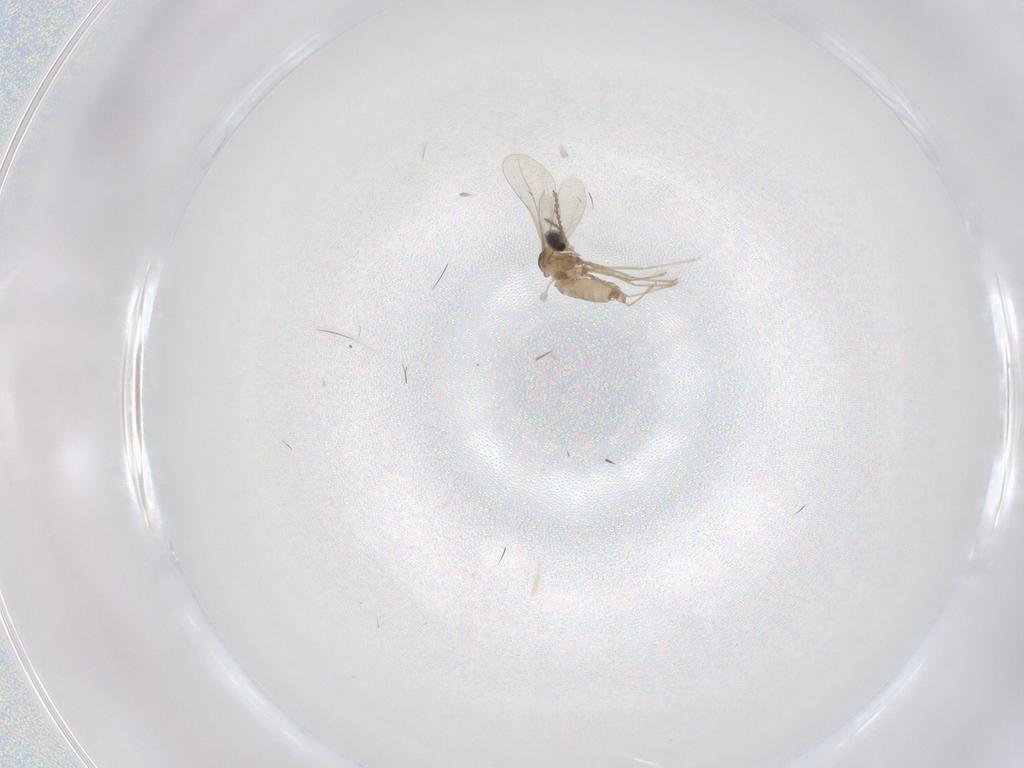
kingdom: Animalia
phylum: Arthropoda
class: Insecta
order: Diptera
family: Cecidomyiidae
